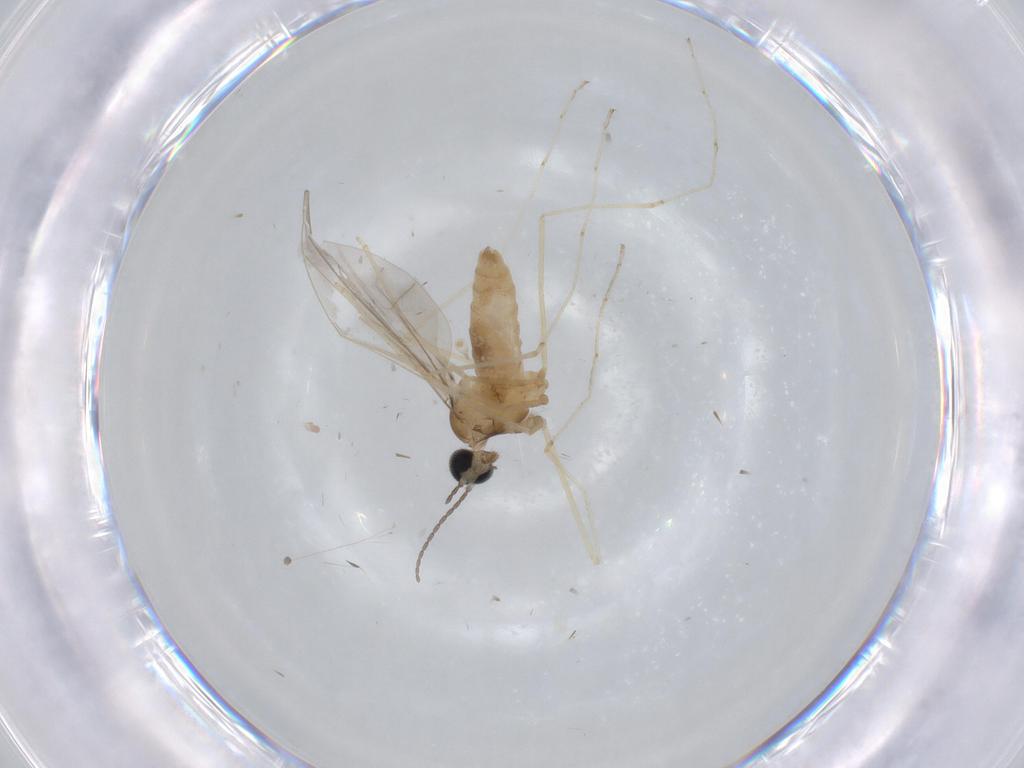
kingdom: Animalia
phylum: Arthropoda
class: Insecta
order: Diptera
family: Cecidomyiidae
